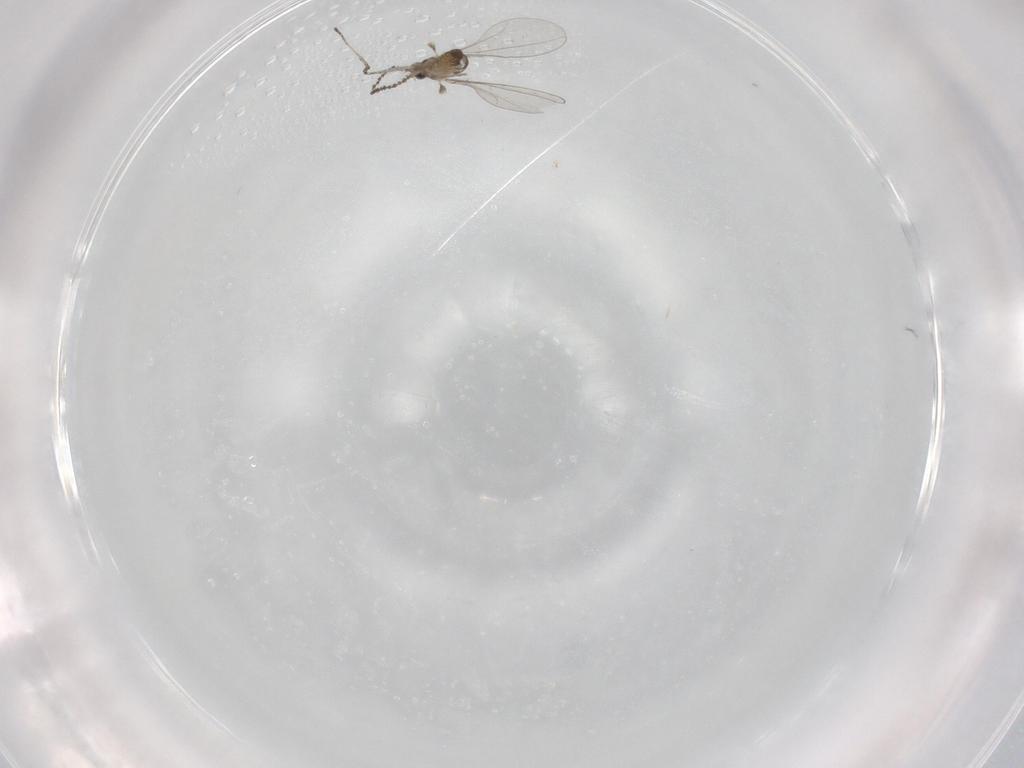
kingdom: Animalia
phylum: Arthropoda
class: Insecta
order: Diptera
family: Cecidomyiidae
